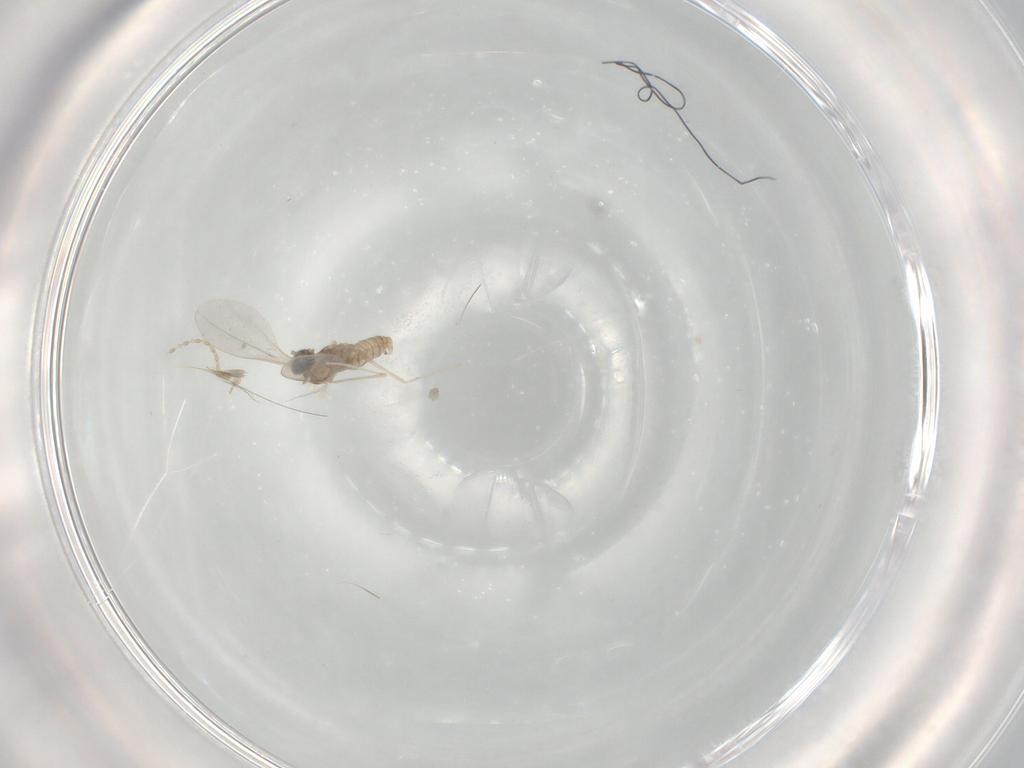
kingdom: Animalia
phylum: Arthropoda
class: Insecta
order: Diptera
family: Cecidomyiidae
